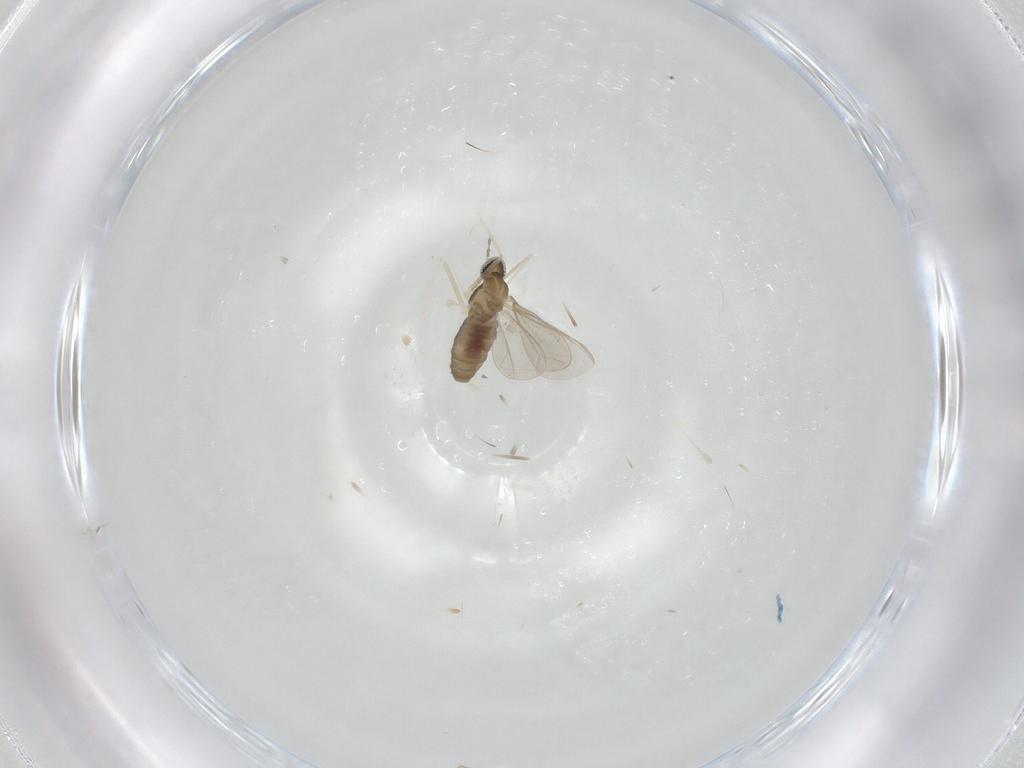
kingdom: Animalia
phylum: Arthropoda
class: Insecta
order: Diptera
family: Cecidomyiidae
